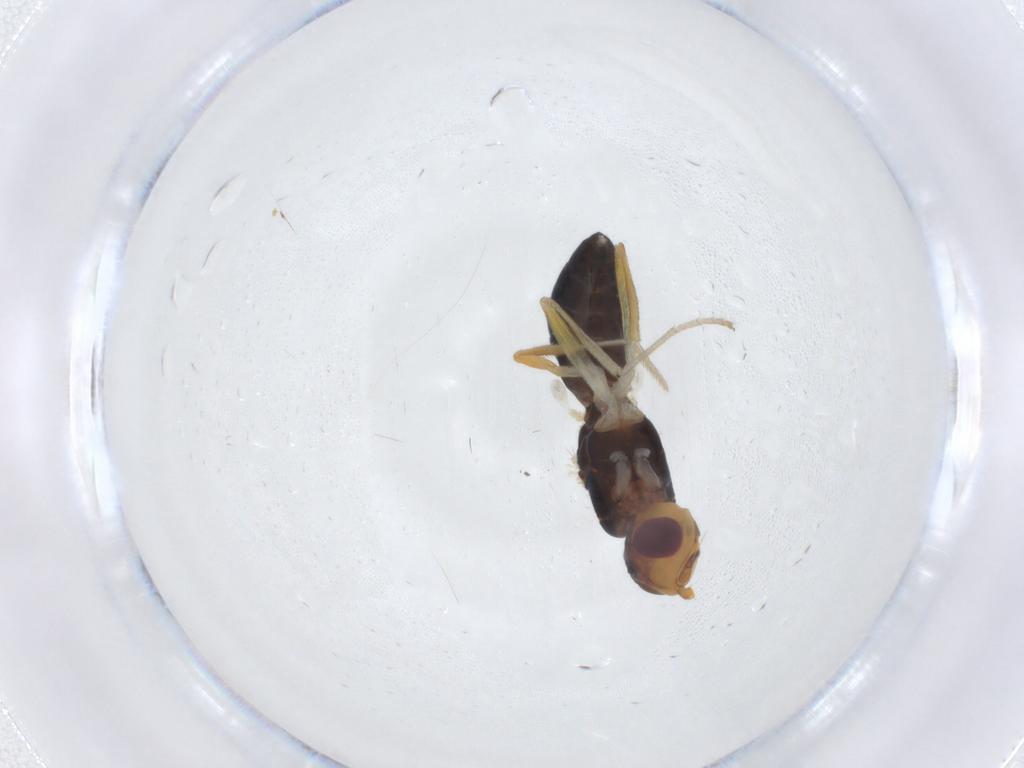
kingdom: Animalia
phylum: Arthropoda
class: Insecta
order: Diptera
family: Psilidae
